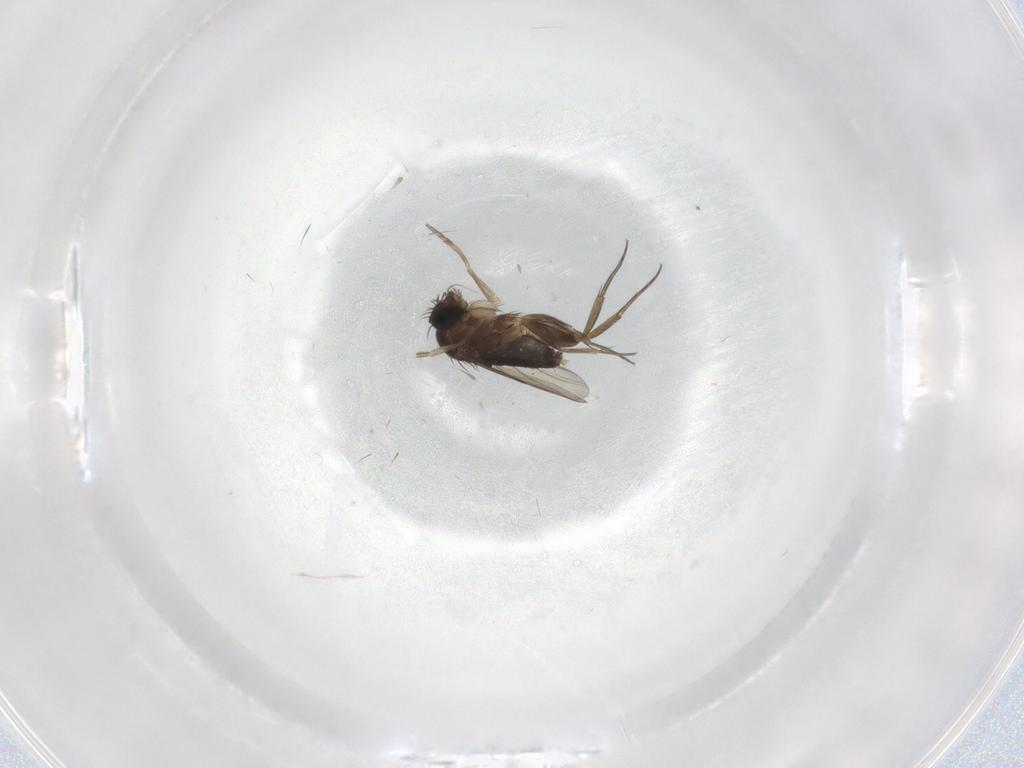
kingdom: Animalia
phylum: Arthropoda
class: Insecta
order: Diptera
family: Phoridae
